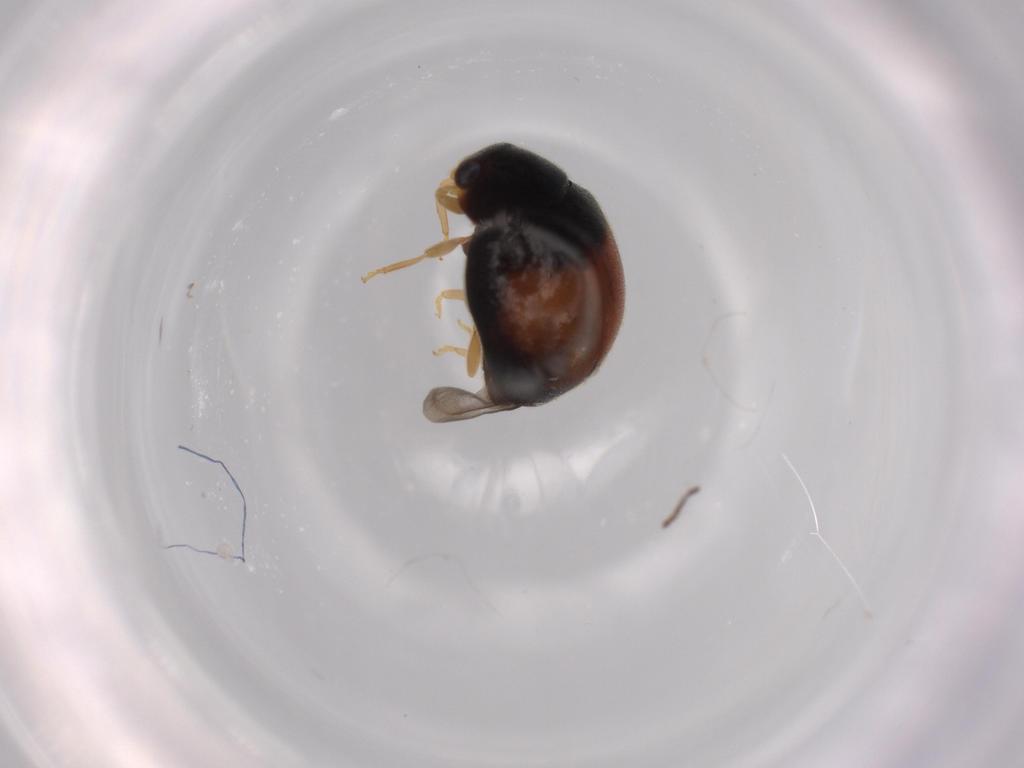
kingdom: Animalia
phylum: Arthropoda
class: Insecta
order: Coleoptera
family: Coccinellidae
